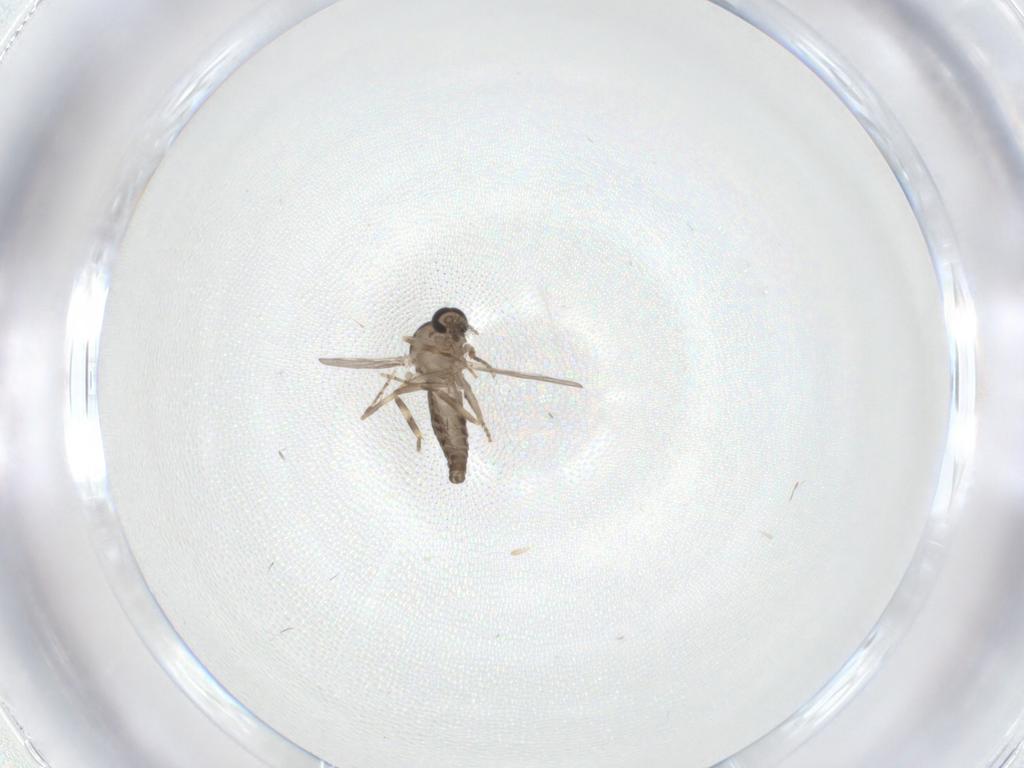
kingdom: Animalia
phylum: Arthropoda
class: Insecta
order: Diptera
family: Ceratopogonidae
